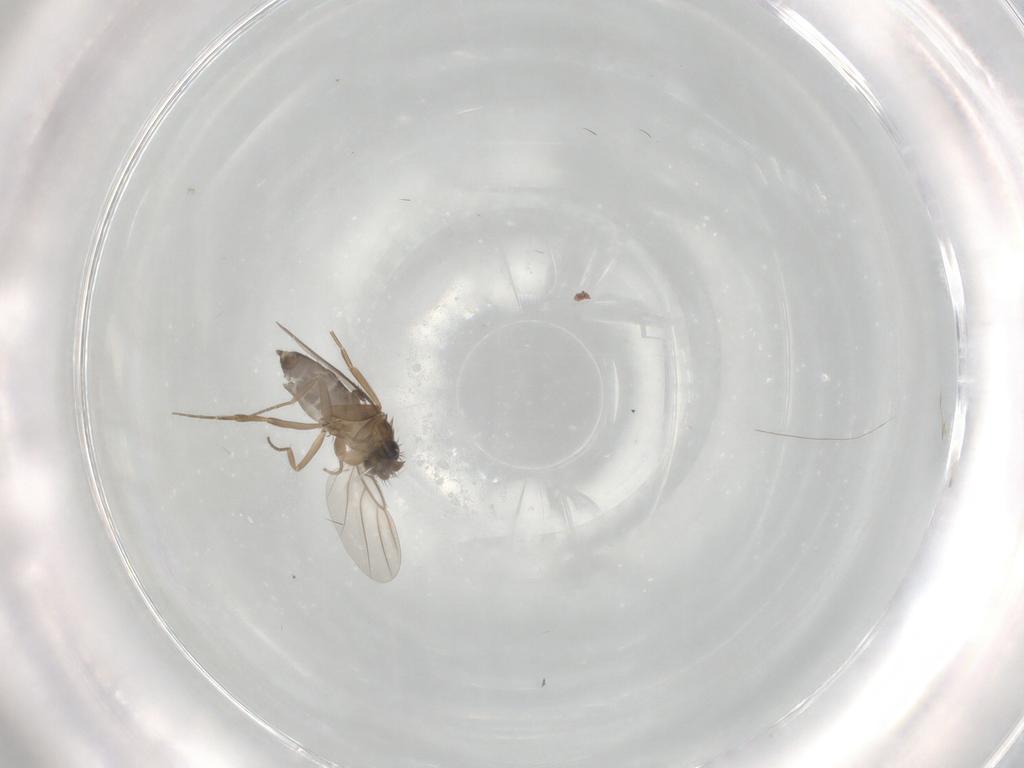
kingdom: Animalia
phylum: Arthropoda
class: Insecta
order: Diptera
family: Phoridae
